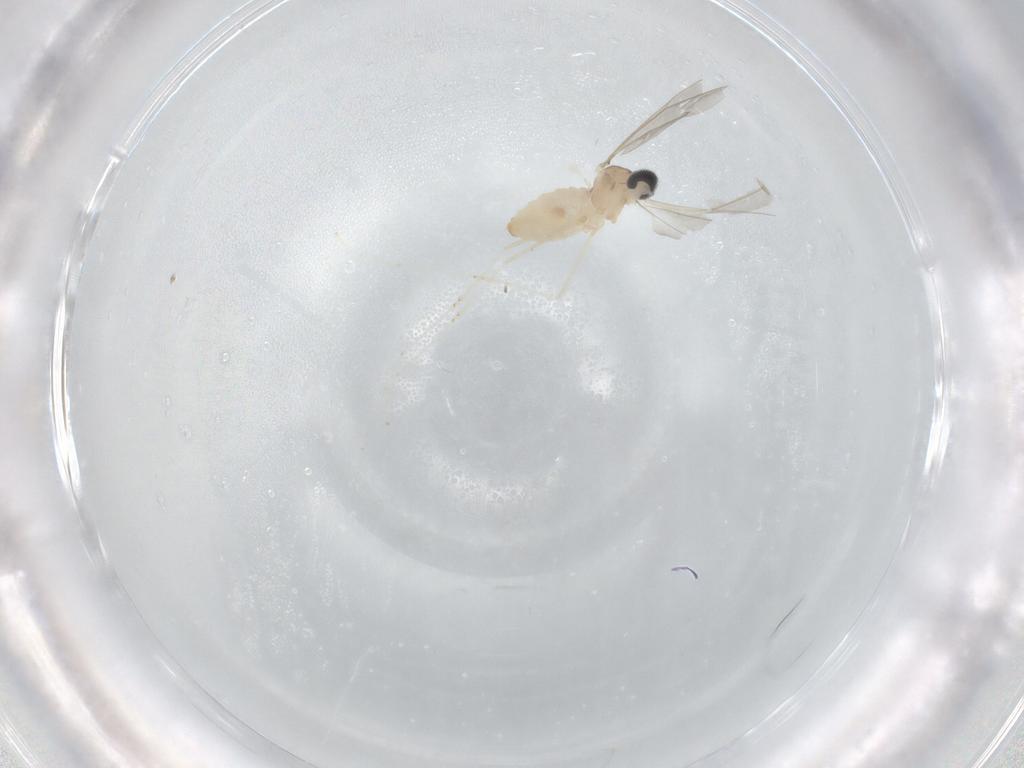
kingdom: Animalia
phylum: Arthropoda
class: Insecta
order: Diptera
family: Cecidomyiidae
